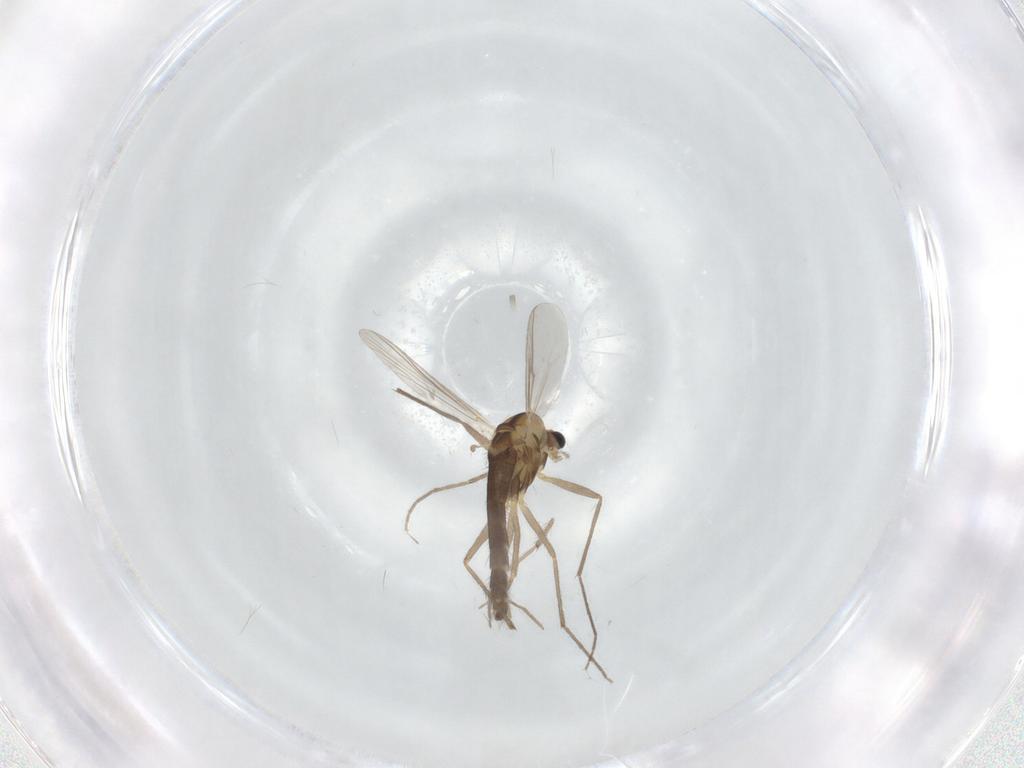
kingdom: Animalia
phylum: Arthropoda
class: Insecta
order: Diptera
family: Chironomidae
